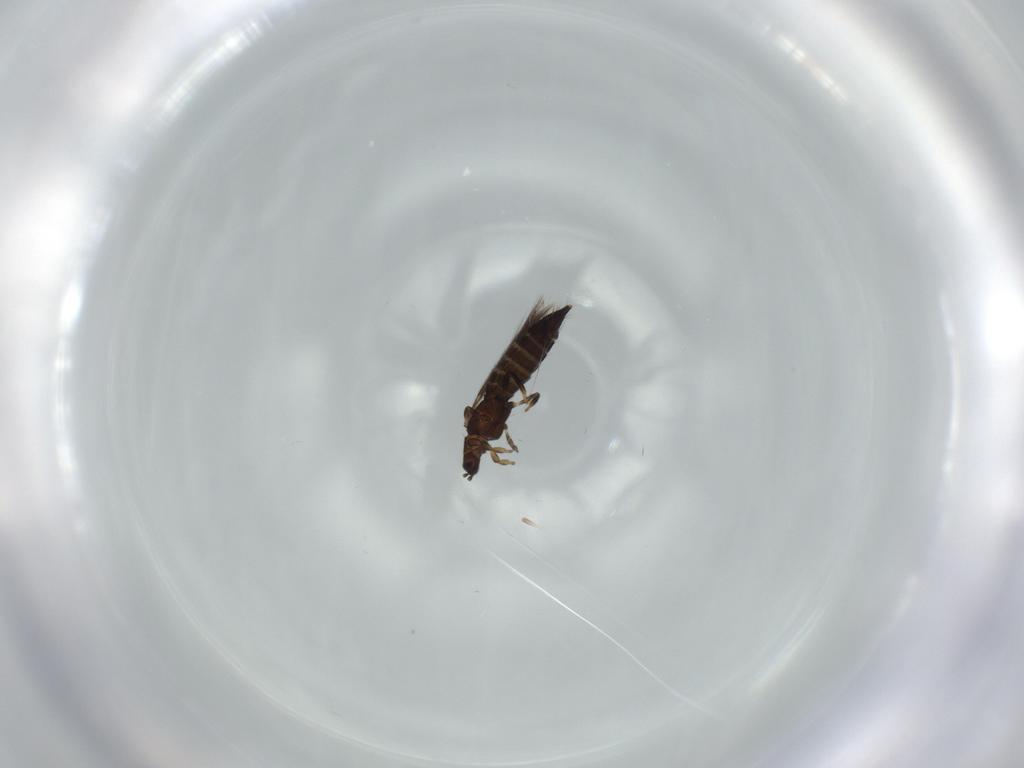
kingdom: Animalia
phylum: Arthropoda
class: Insecta
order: Thysanoptera
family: Thripidae
